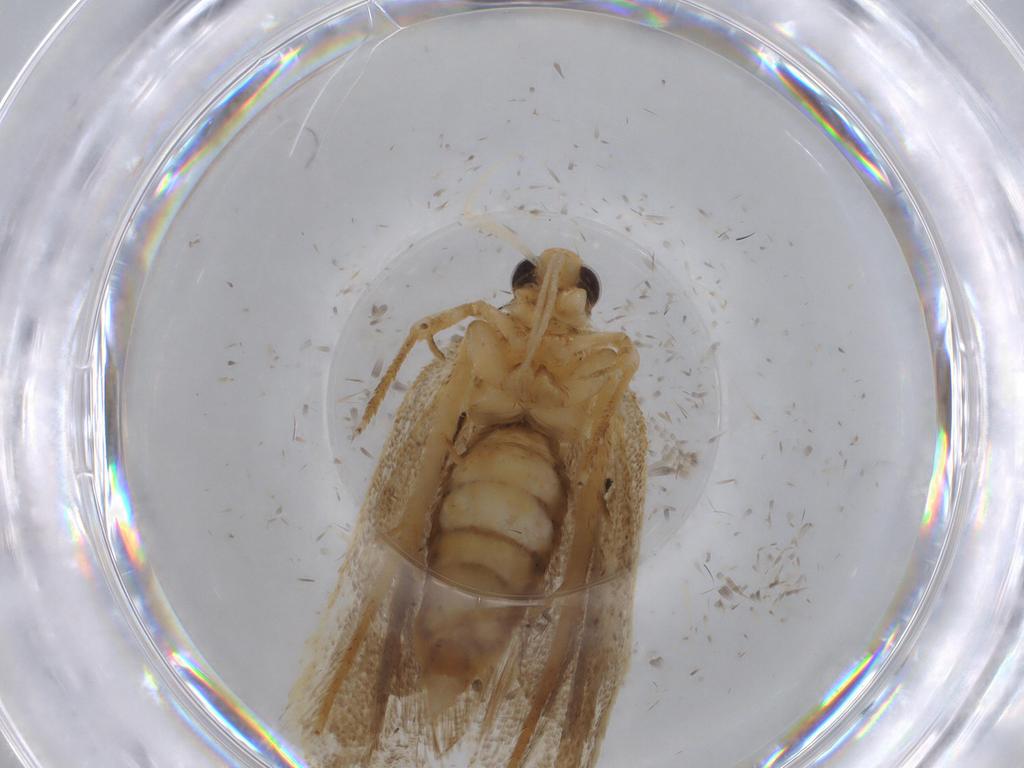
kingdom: Animalia
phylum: Arthropoda
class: Insecta
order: Lepidoptera
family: Lecithoceridae
